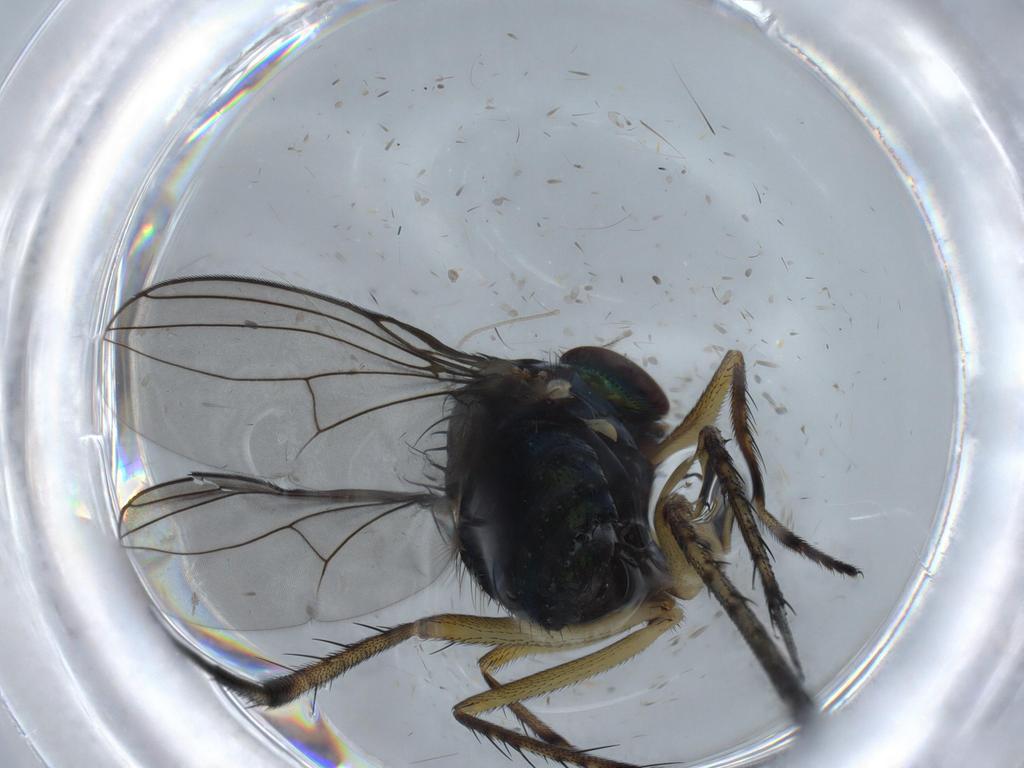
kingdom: Animalia
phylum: Arthropoda
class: Insecta
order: Diptera
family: Dolichopodidae
